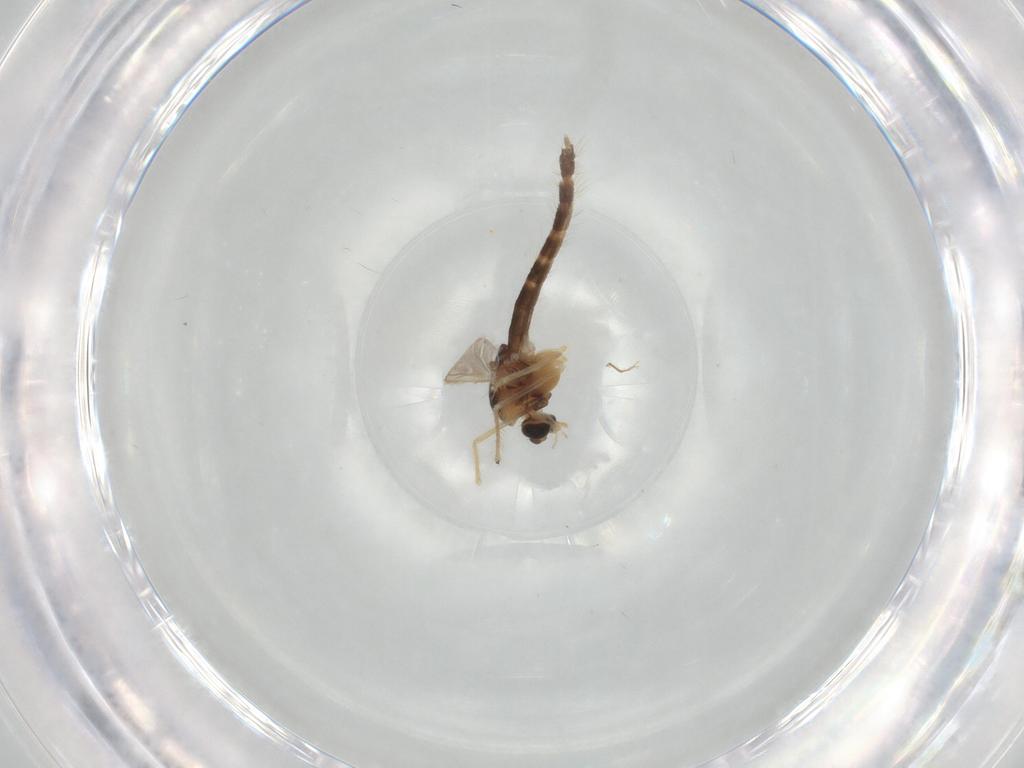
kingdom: Animalia
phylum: Arthropoda
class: Insecta
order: Diptera
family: Chironomidae
